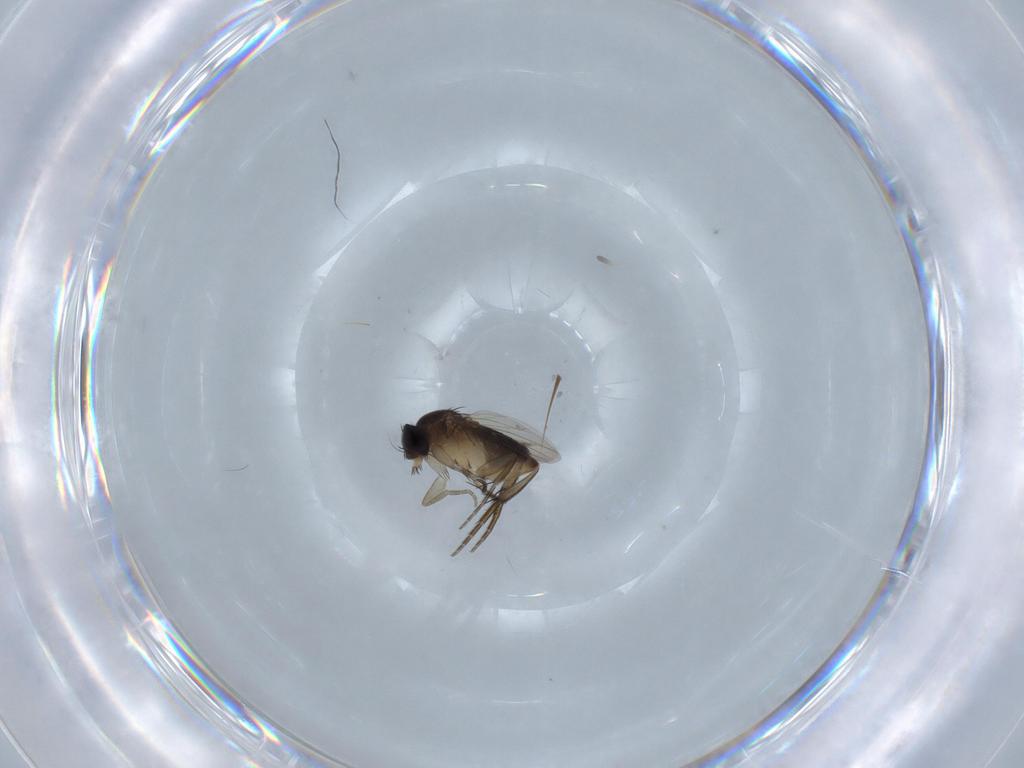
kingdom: Animalia
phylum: Arthropoda
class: Insecta
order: Diptera
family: Phoridae
